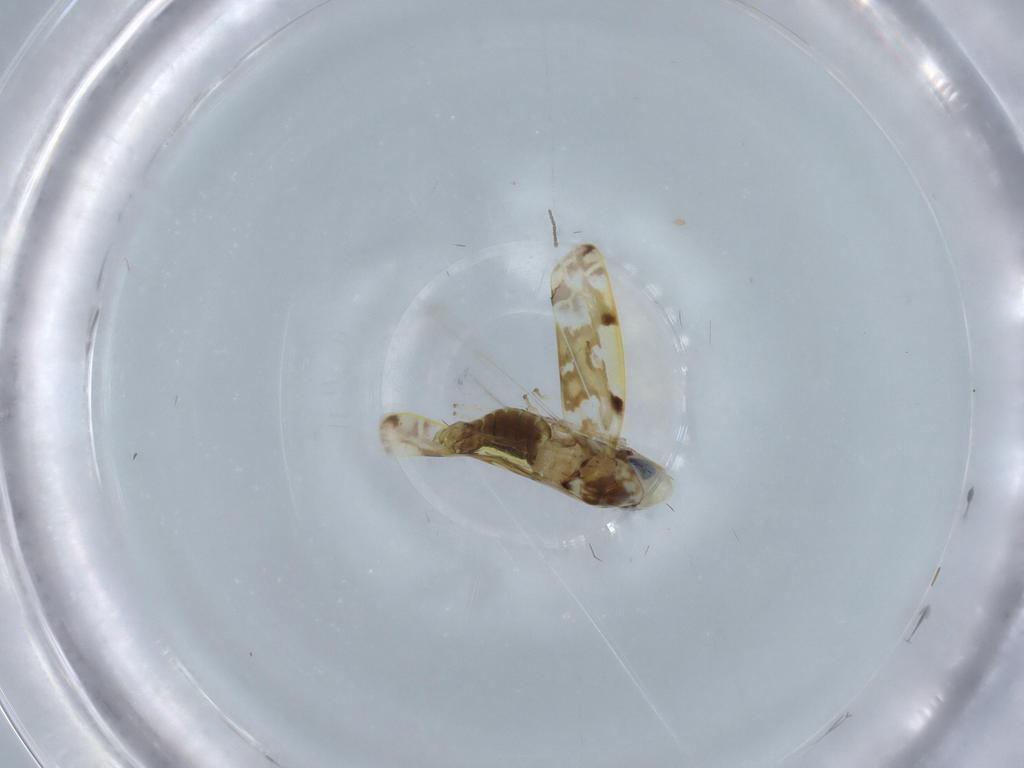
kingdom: Animalia
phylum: Arthropoda
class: Insecta
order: Hemiptera
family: Cicadellidae
